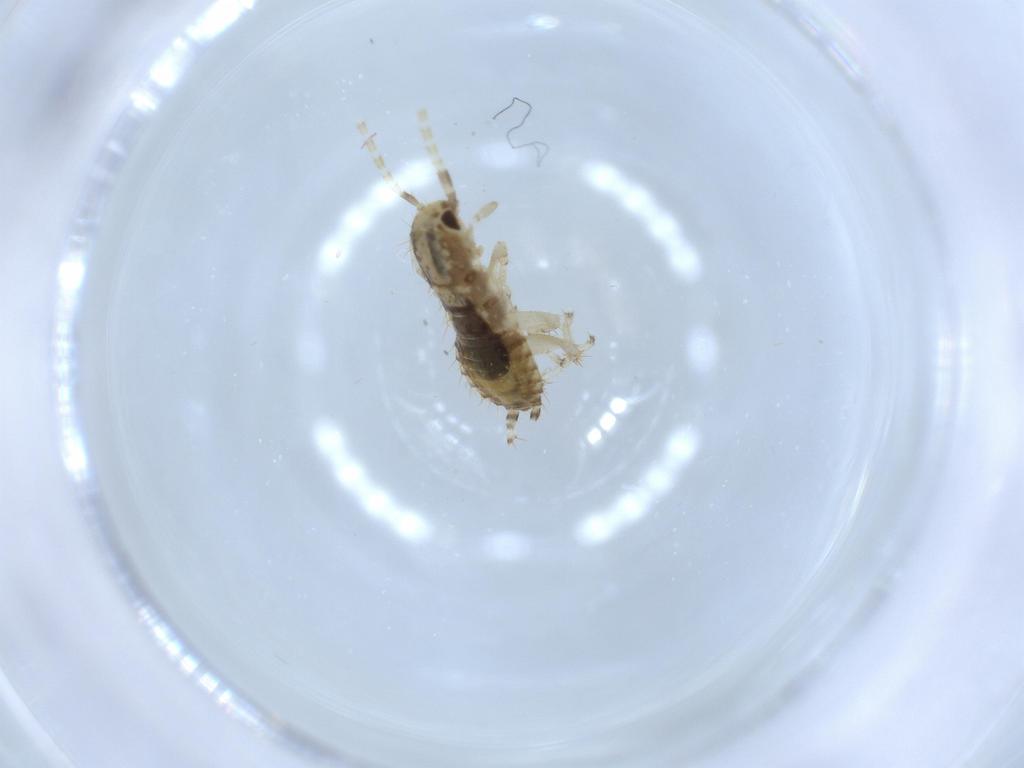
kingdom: Animalia
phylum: Arthropoda
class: Insecta
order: Blattodea
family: Ectobiidae
